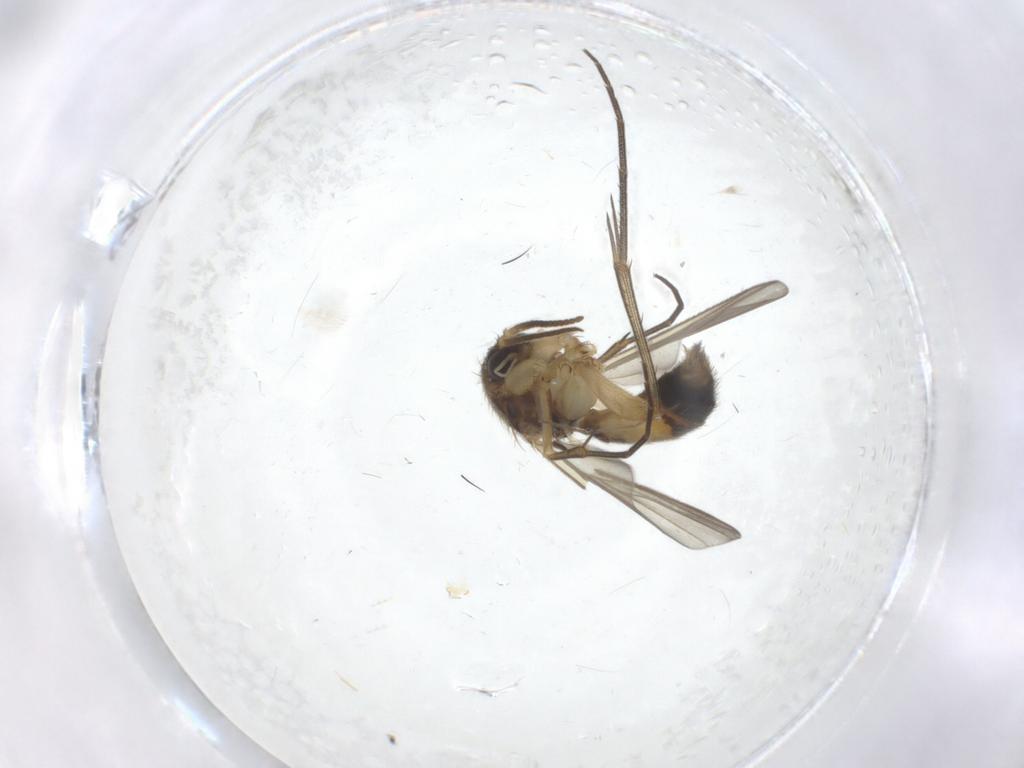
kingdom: Animalia
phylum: Arthropoda
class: Insecta
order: Diptera
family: Chironomidae
